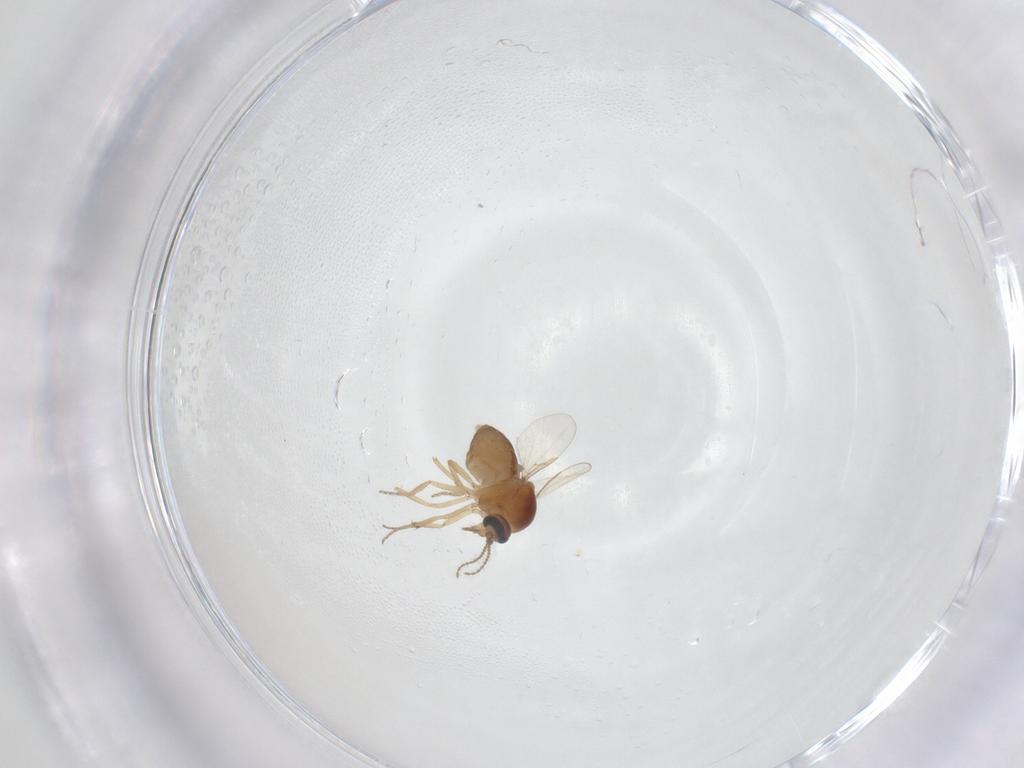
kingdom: Animalia
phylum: Arthropoda
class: Insecta
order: Diptera
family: Ceratopogonidae
